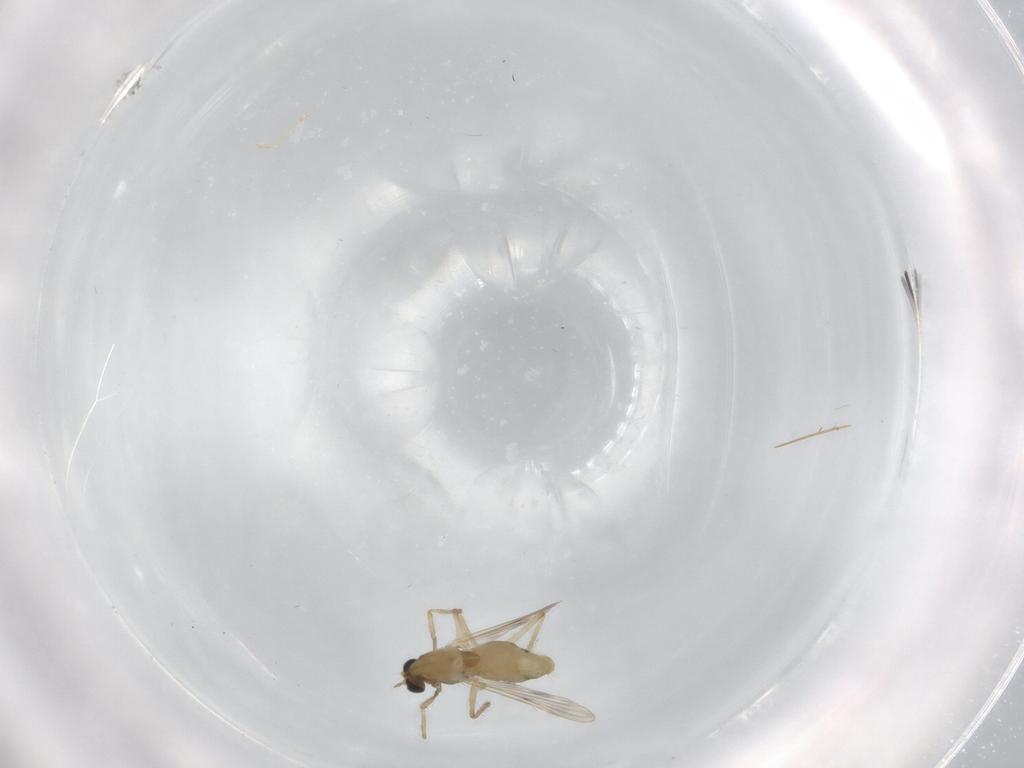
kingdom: Animalia
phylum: Arthropoda
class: Insecta
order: Diptera
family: Chironomidae
